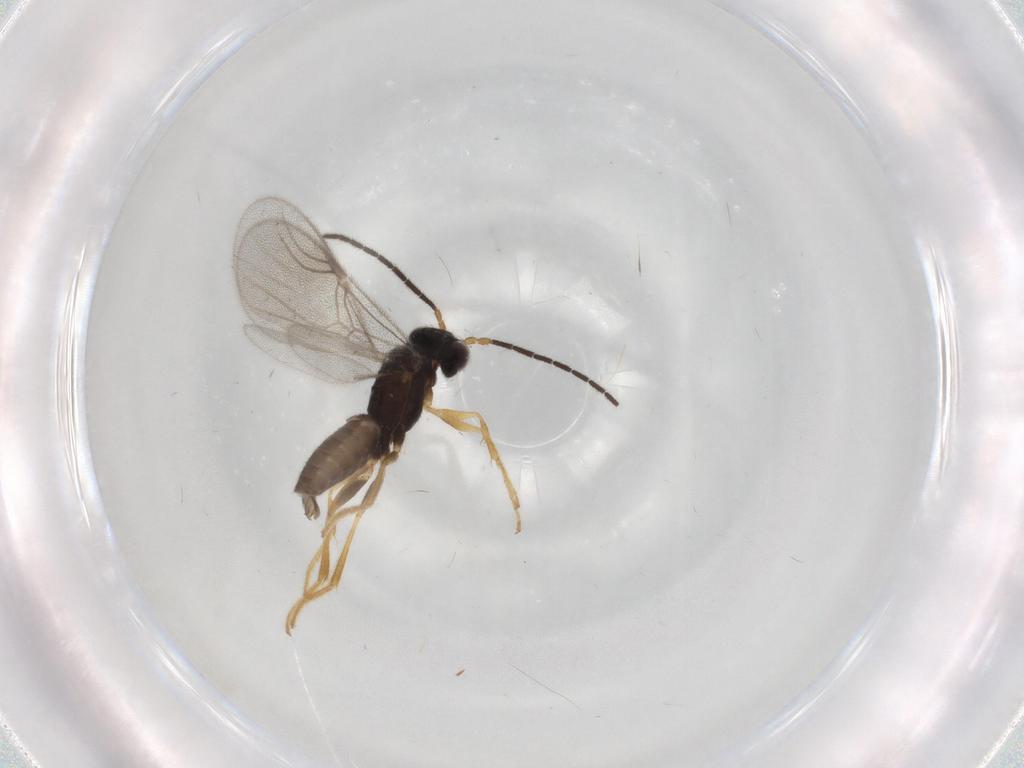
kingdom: Animalia
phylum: Arthropoda
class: Insecta
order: Hymenoptera
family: Dryinidae
